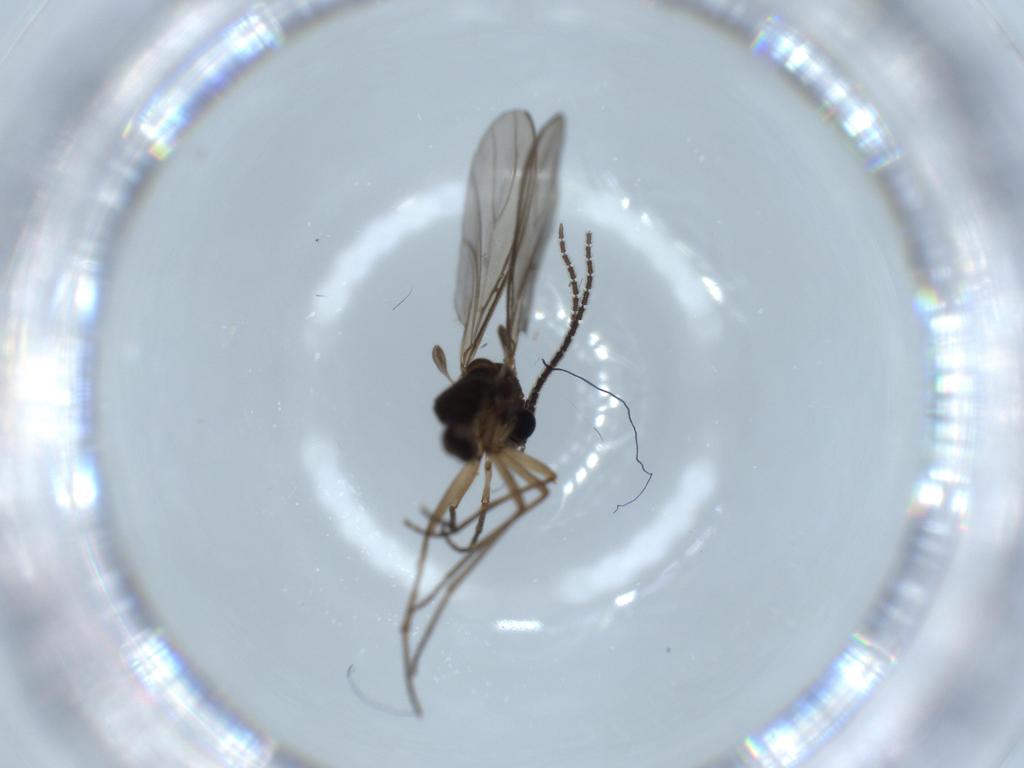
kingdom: Animalia
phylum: Arthropoda
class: Insecta
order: Diptera
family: Sciaridae
